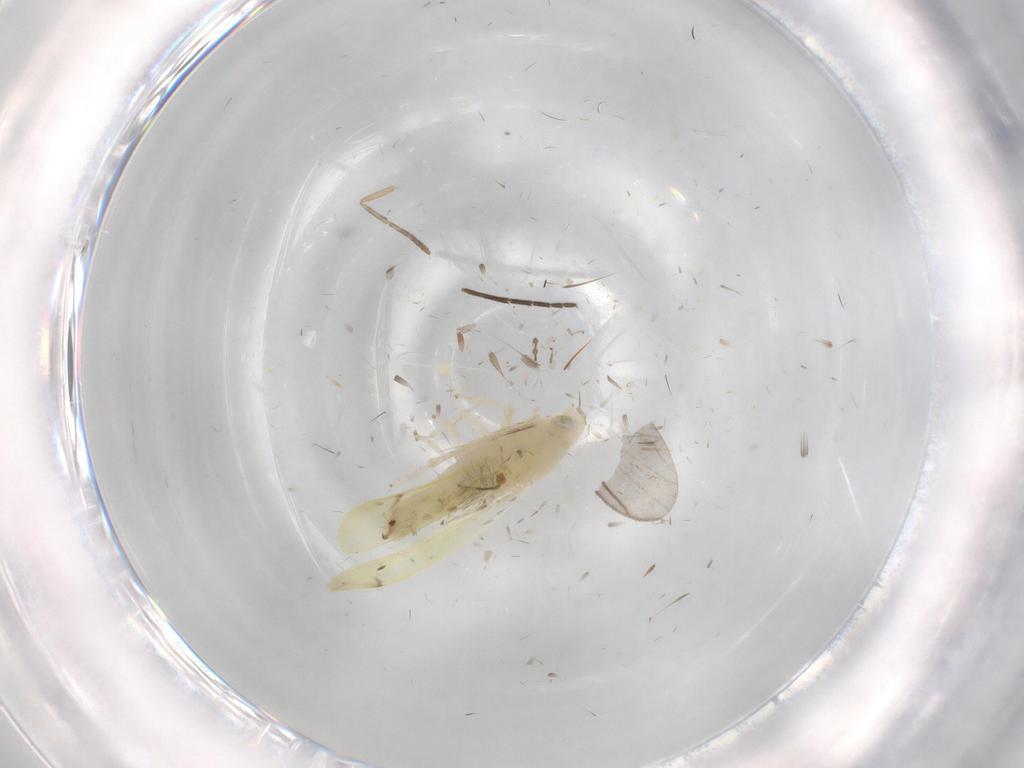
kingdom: Animalia
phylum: Arthropoda
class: Insecta
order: Hemiptera
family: Cicadellidae
